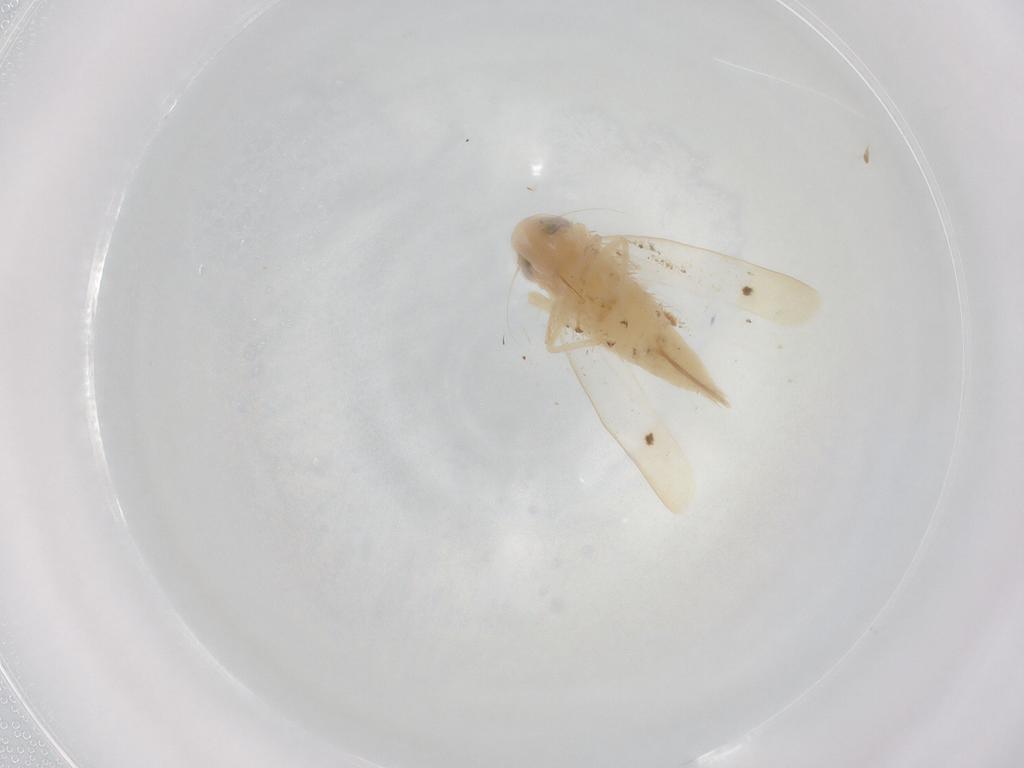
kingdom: Animalia
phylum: Arthropoda
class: Insecta
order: Hemiptera
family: Cicadellidae
